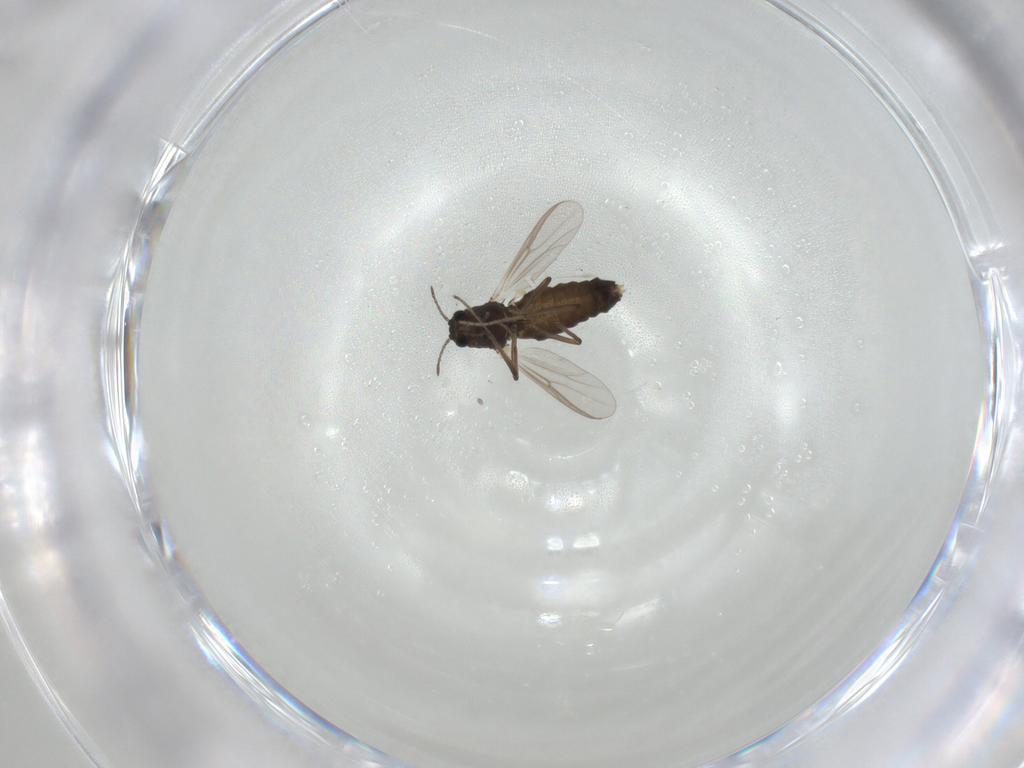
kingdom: Animalia
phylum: Arthropoda
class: Insecta
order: Diptera
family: Chironomidae
